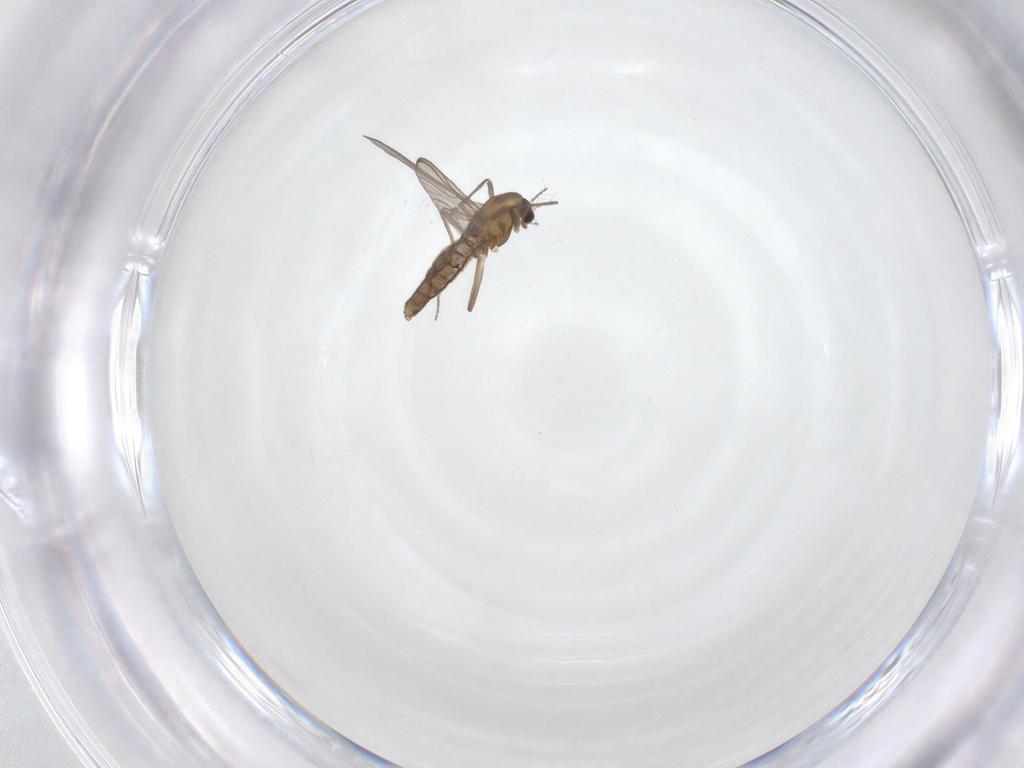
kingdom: Animalia
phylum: Arthropoda
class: Insecta
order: Diptera
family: Chironomidae
